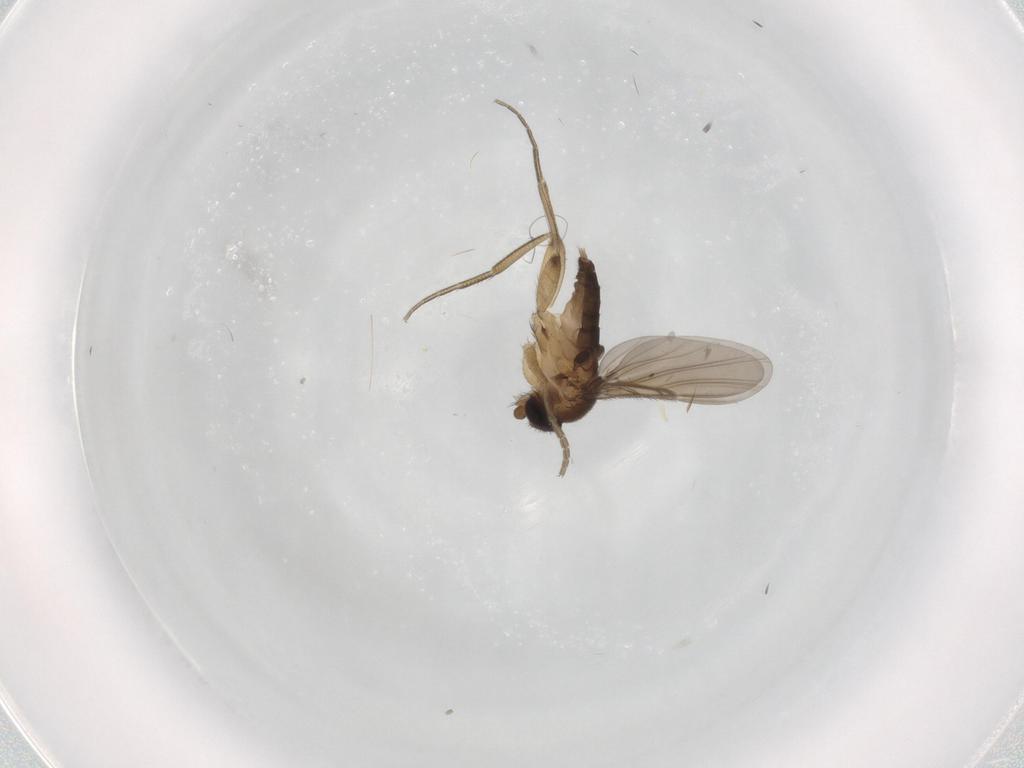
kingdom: Animalia
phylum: Arthropoda
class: Insecta
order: Diptera
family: Phoridae
